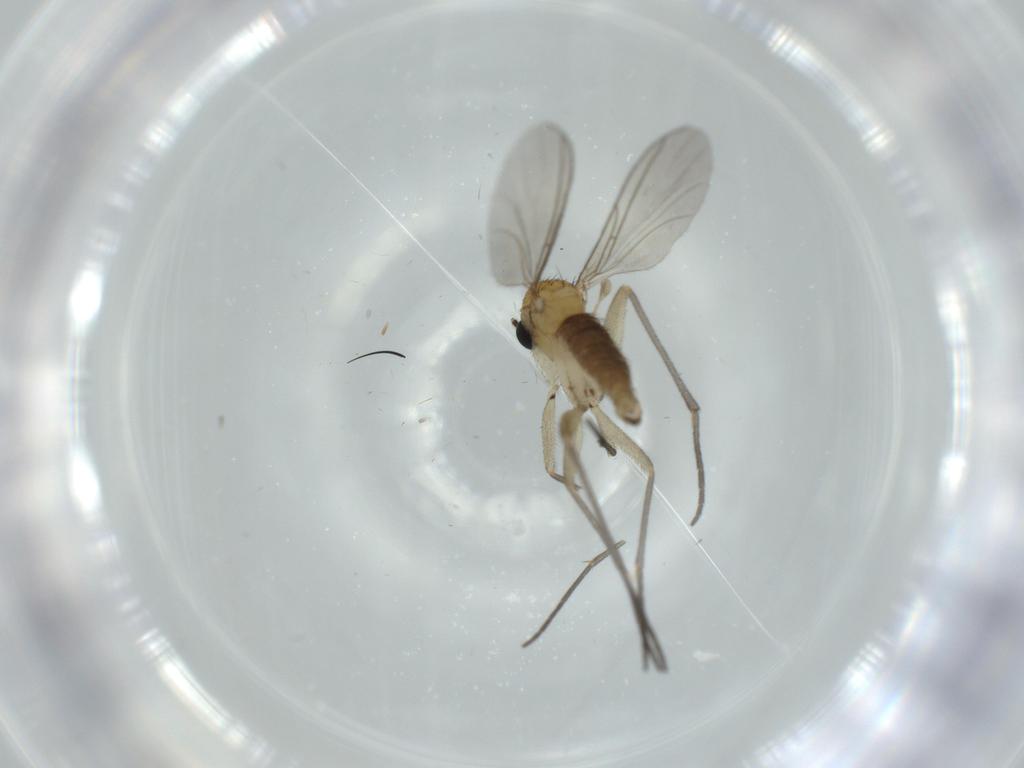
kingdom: Animalia
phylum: Arthropoda
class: Insecta
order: Diptera
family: Sciaridae
